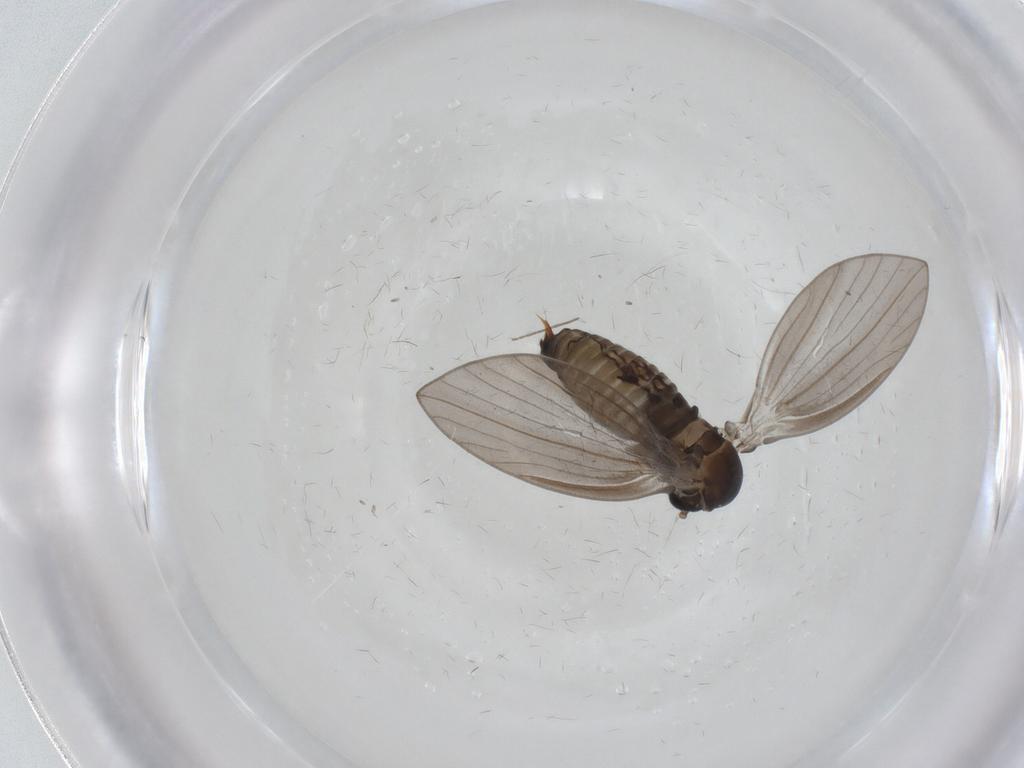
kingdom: Animalia
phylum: Arthropoda
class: Insecta
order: Diptera
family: Psychodidae
